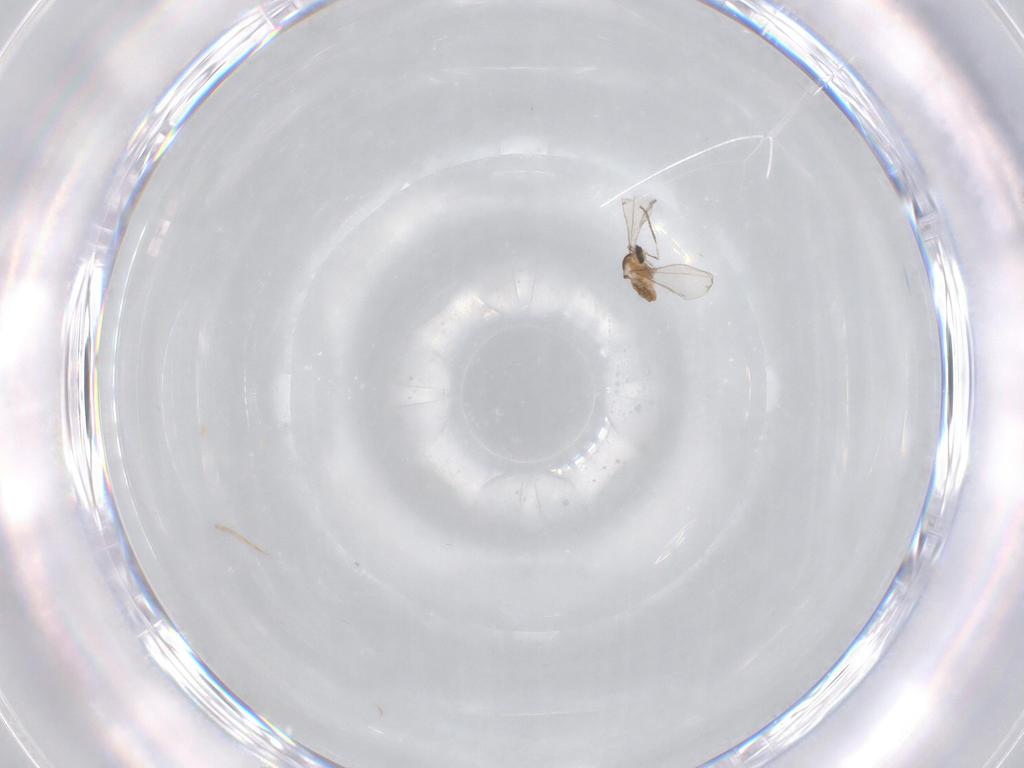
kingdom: Animalia
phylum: Arthropoda
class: Insecta
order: Diptera
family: Cecidomyiidae
